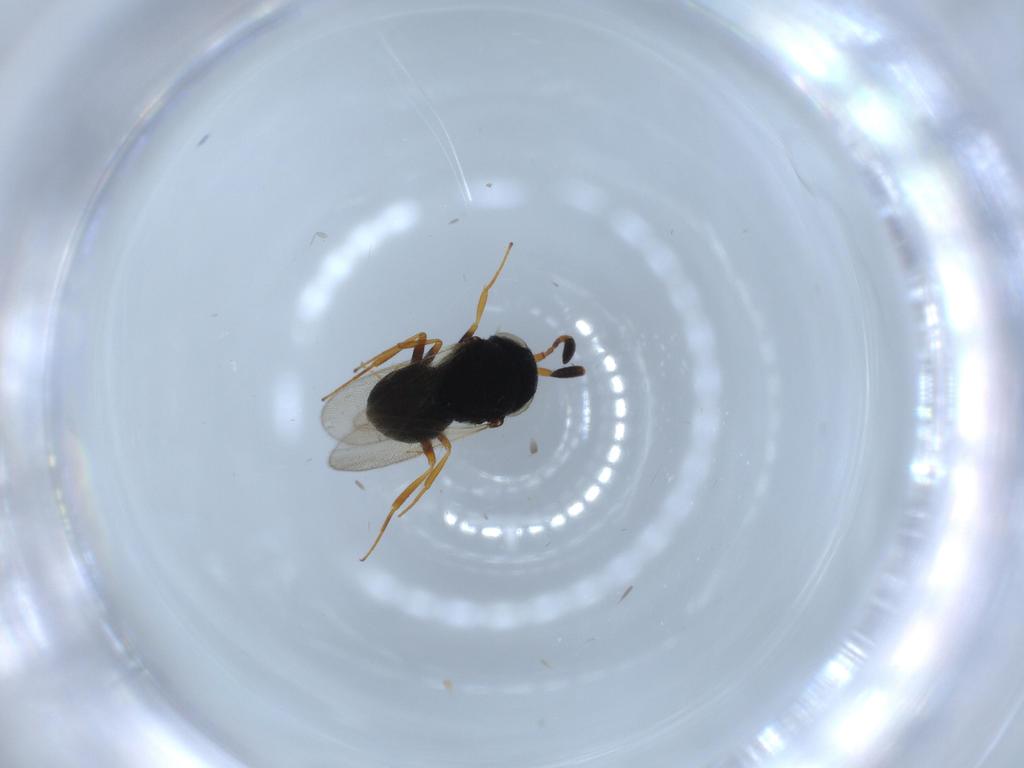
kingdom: Animalia
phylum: Arthropoda
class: Insecta
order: Hymenoptera
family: Scelionidae
